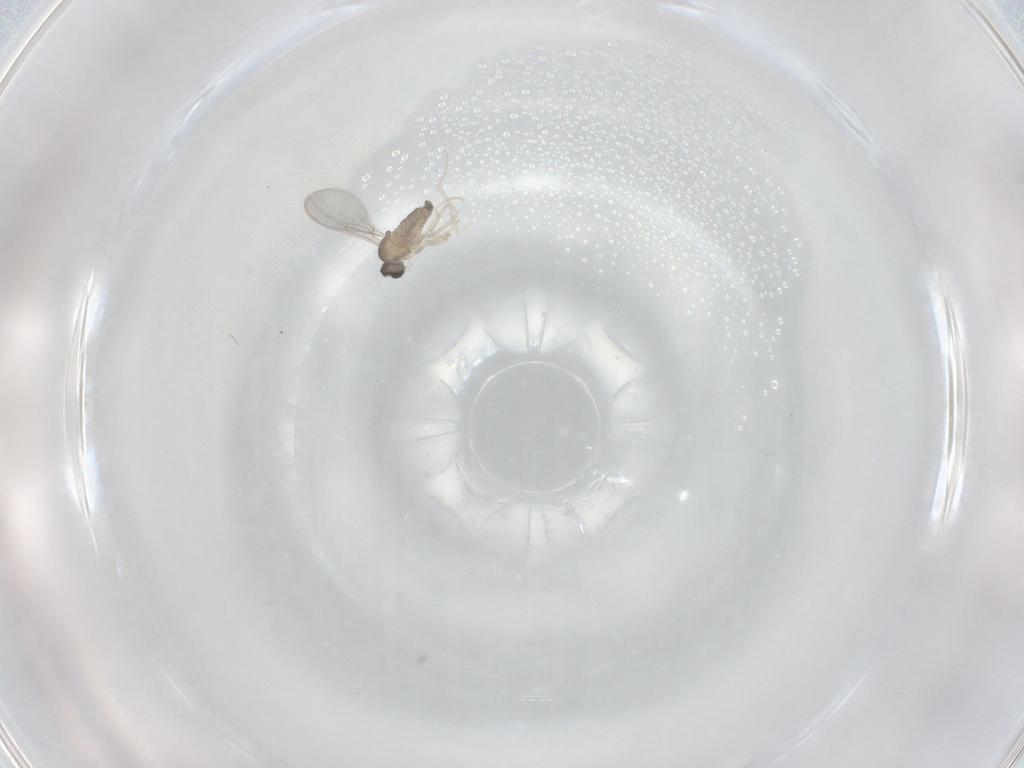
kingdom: Animalia
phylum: Arthropoda
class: Insecta
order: Diptera
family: Cecidomyiidae
